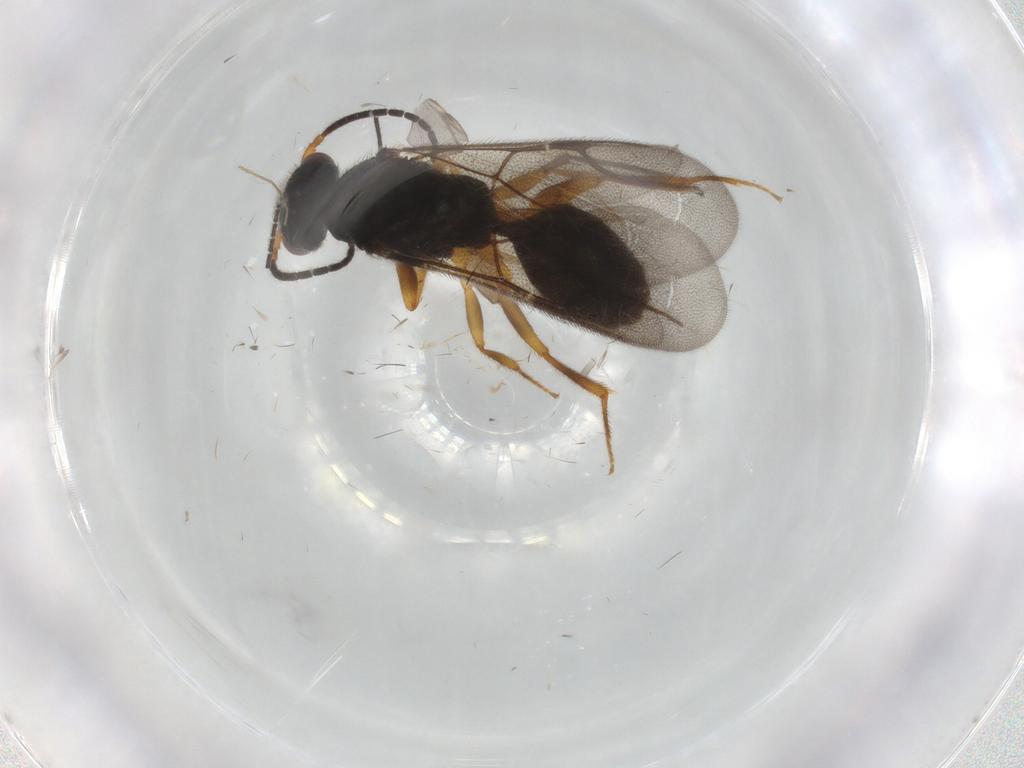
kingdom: Animalia
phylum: Arthropoda
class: Insecta
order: Hymenoptera
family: Bethylidae
